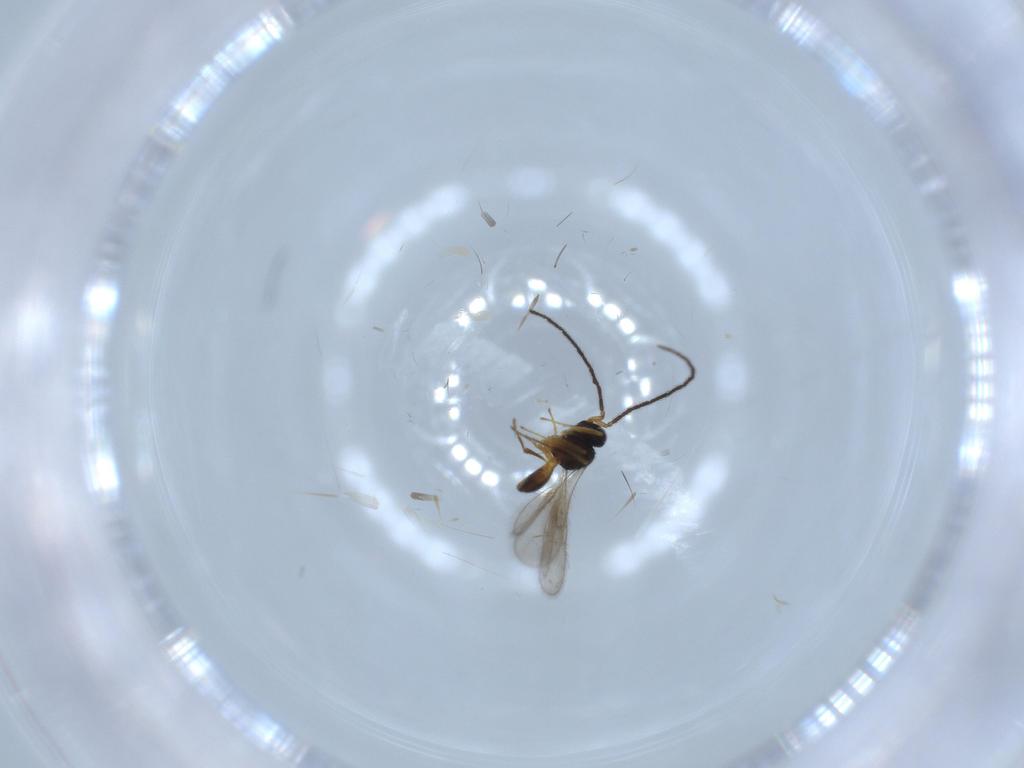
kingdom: Animalia
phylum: Arthropoda
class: Insecta
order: Hymenoptera
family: Scelionidae
